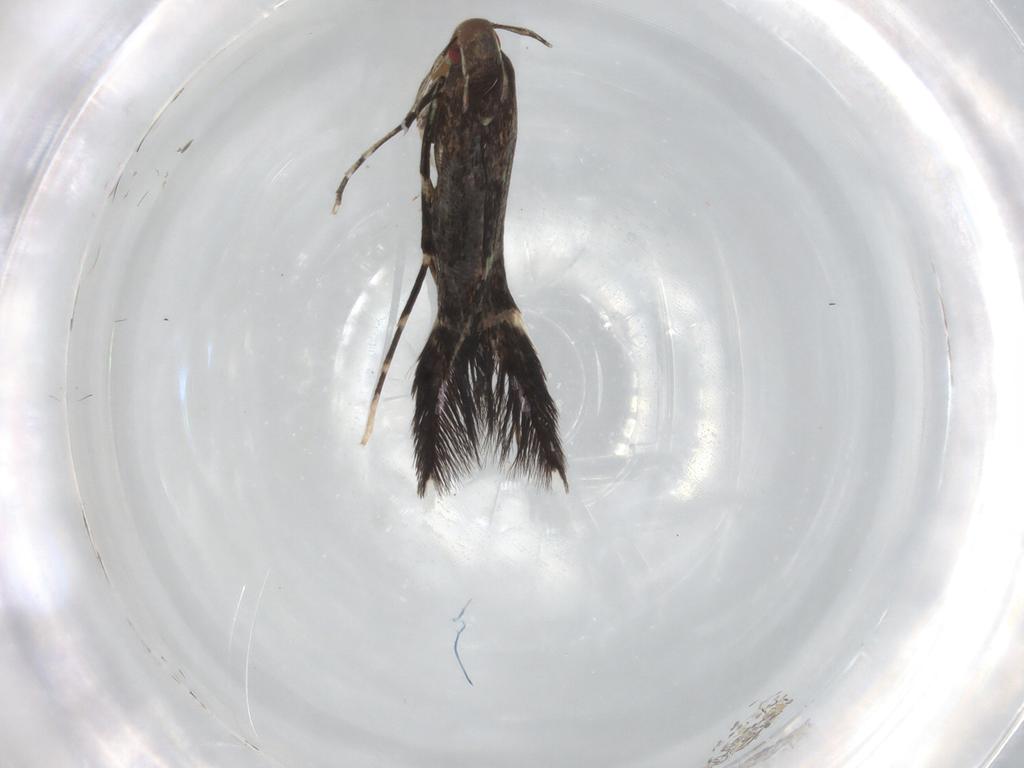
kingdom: Animalia
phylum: Arthropoda
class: Insecta
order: Lepidoptera
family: Cosmopterigidae
